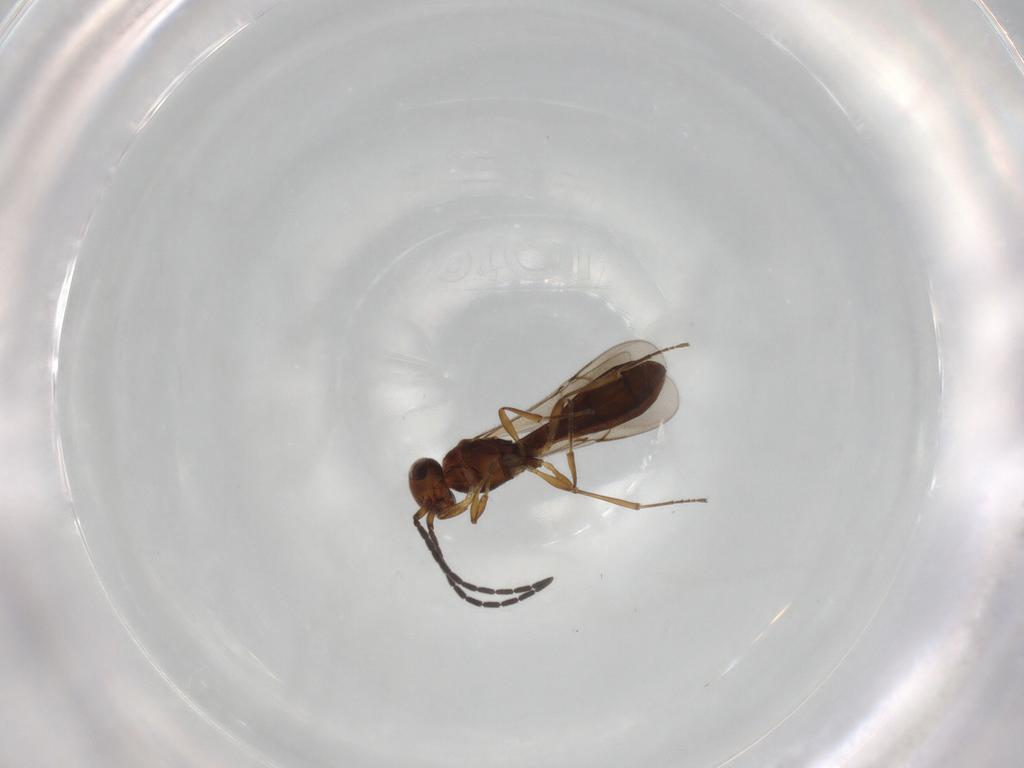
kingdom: Animalia
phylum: Arthropoda
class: Insecta
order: Hymenoptera
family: Scelionidae
